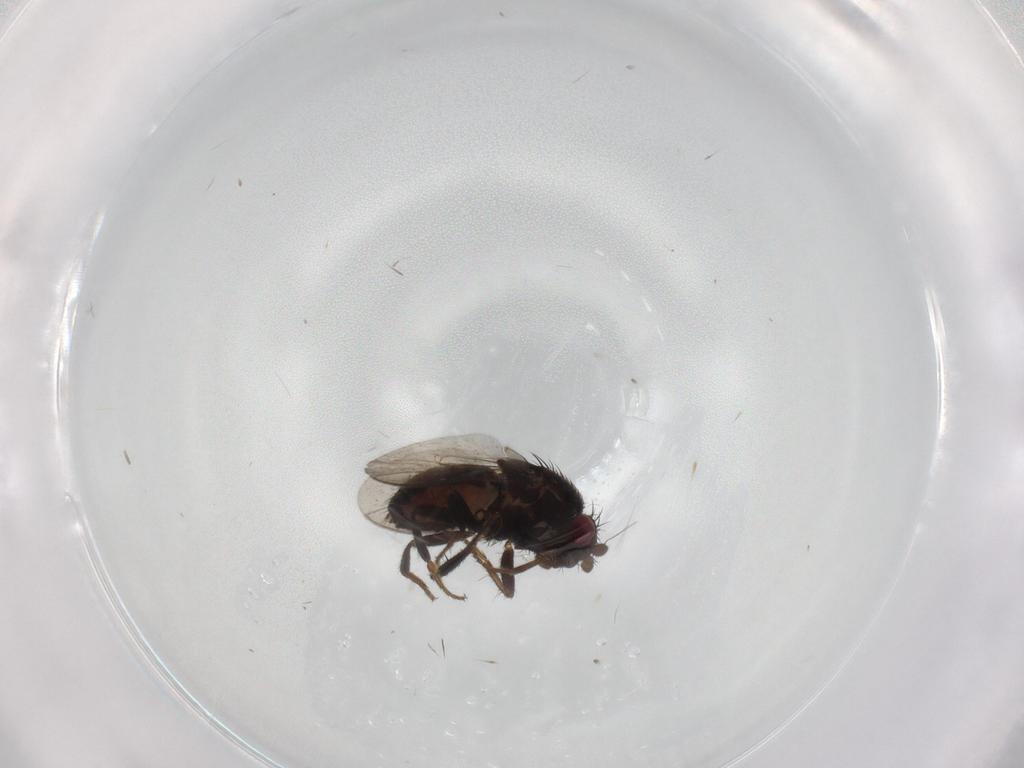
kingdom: Animalia
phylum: Arthropoda
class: Insecta
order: Diptera
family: Sphaeroceridae
